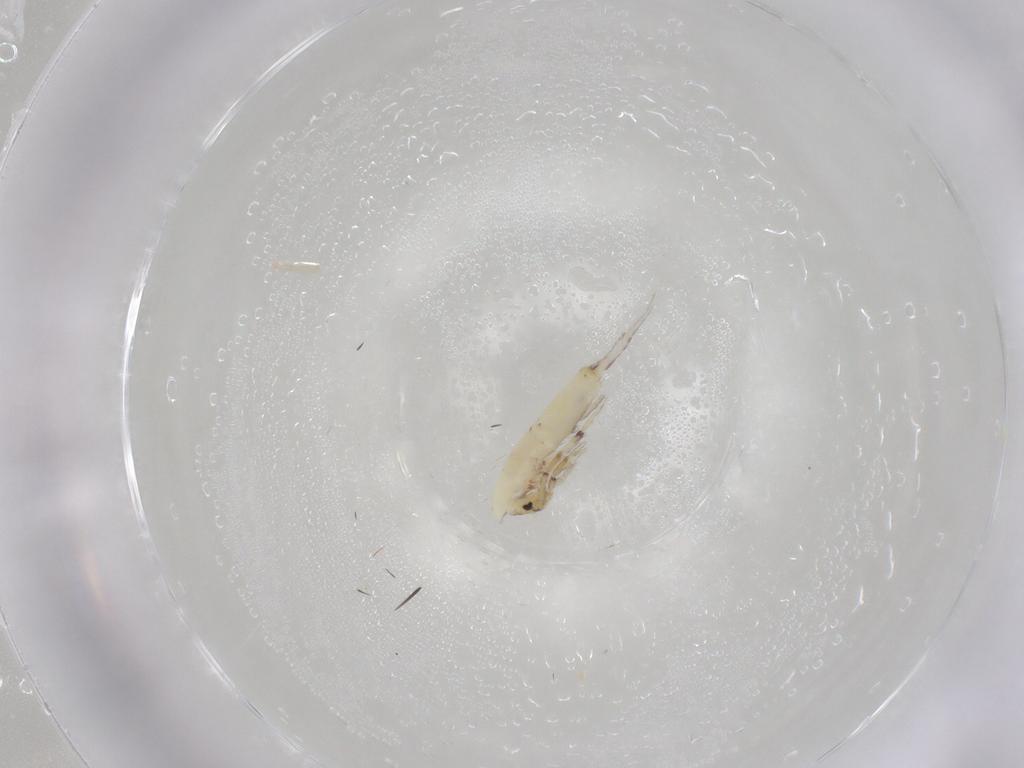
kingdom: Animalia
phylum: Arthropoda
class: Collembola
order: Entomobryomorpha
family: Entomobryidae
